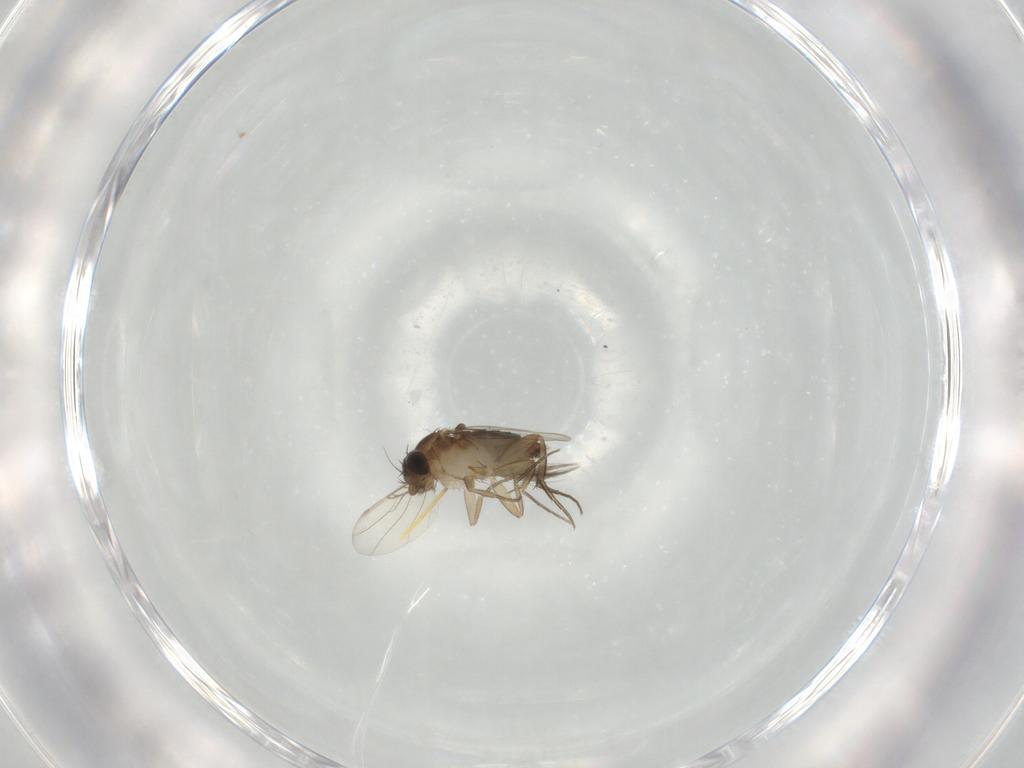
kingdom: Animalia
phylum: Arthropoda
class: Insecta
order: Diptera
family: Phoridae
